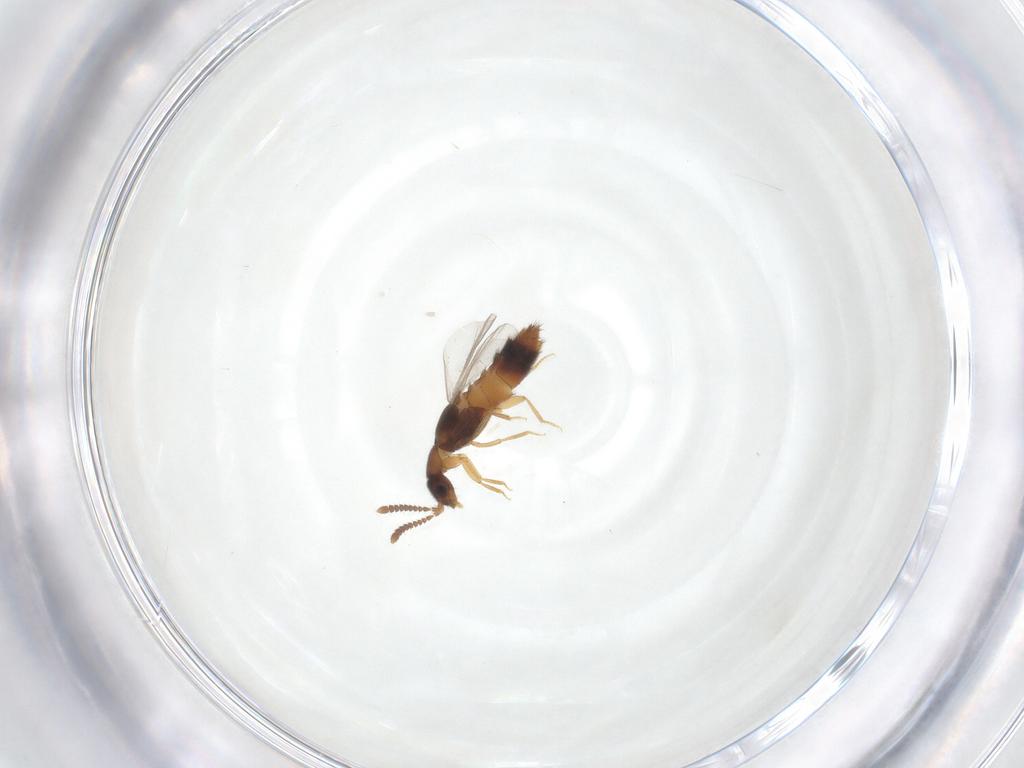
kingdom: Animalia
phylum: Arthropoda
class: Insecta
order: Coleoptera
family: Staphylinidae
